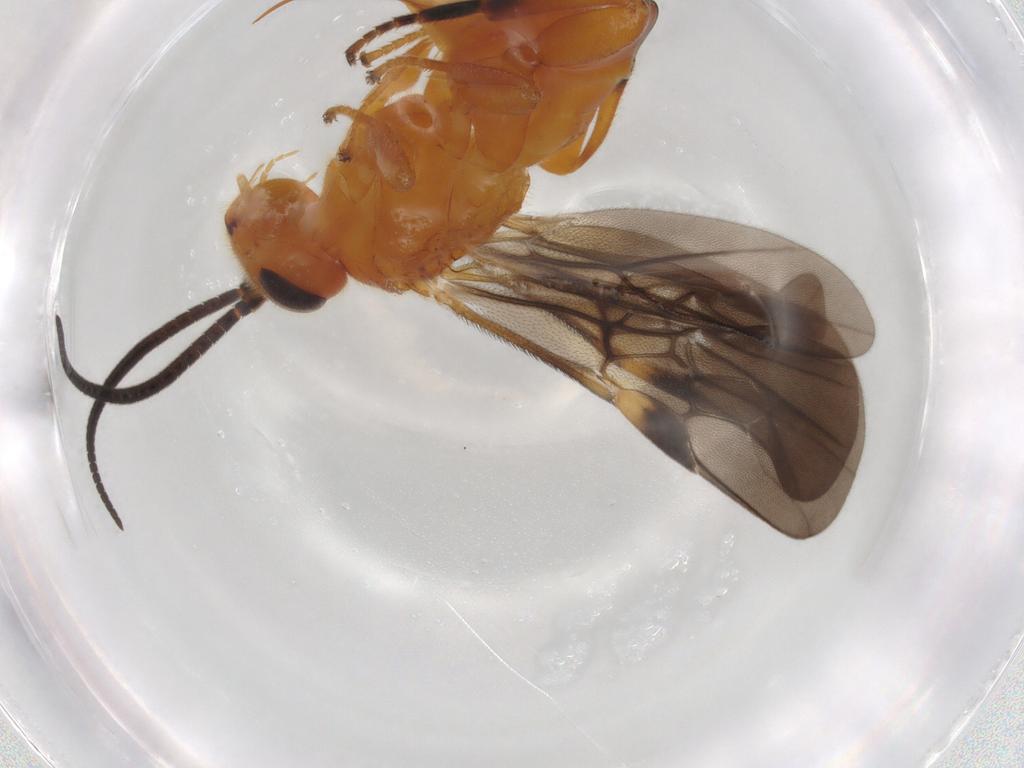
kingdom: Animalia
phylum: Arthropoda
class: Insecta
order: Hymenoptera
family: Braconidae
